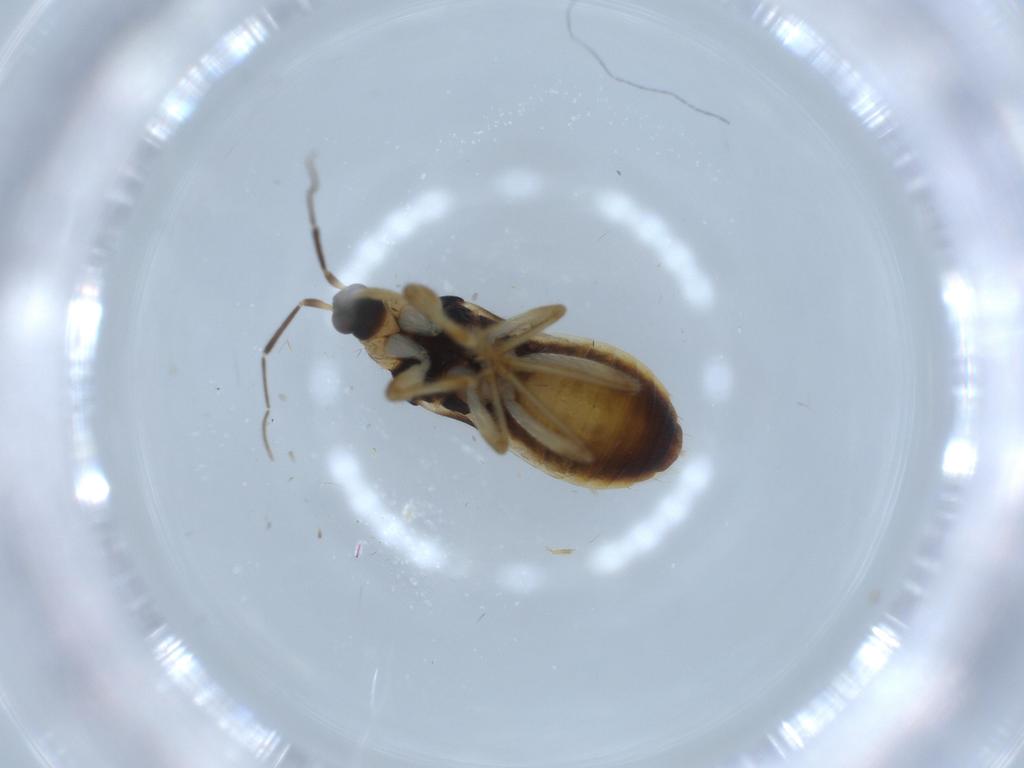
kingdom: Animalia
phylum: Arthropoda
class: Insecta
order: Hemiptera
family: Nabidae
